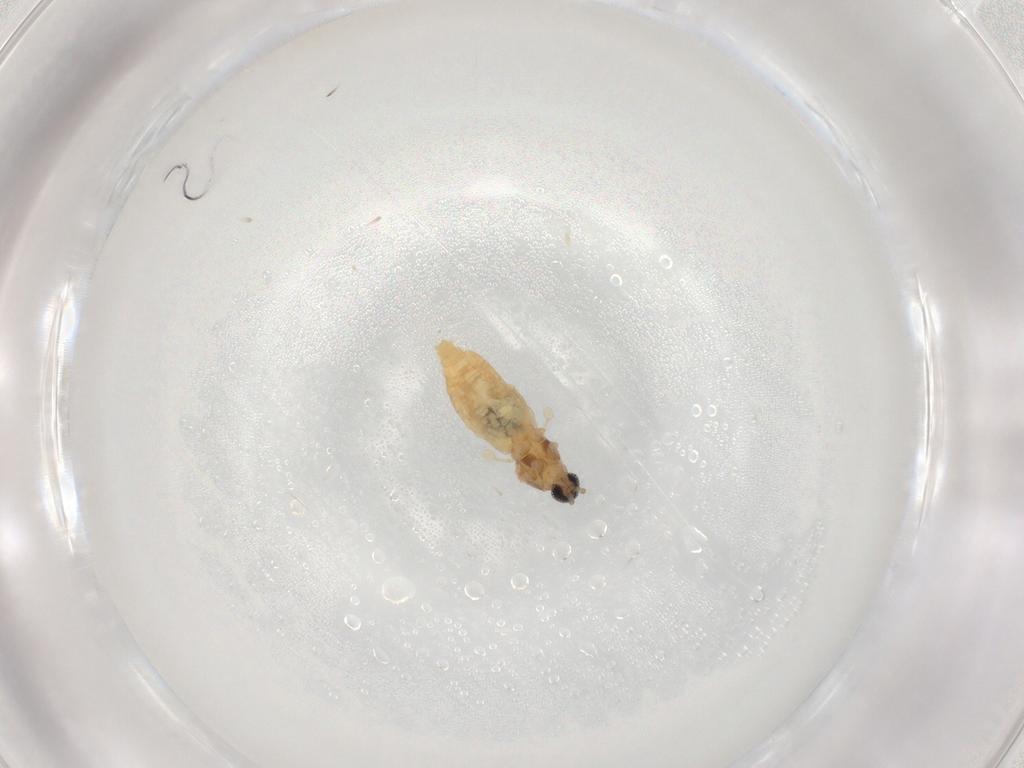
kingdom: Animalia
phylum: Arthropoda
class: Insecta
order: Diptera
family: Cecidomyiidae
